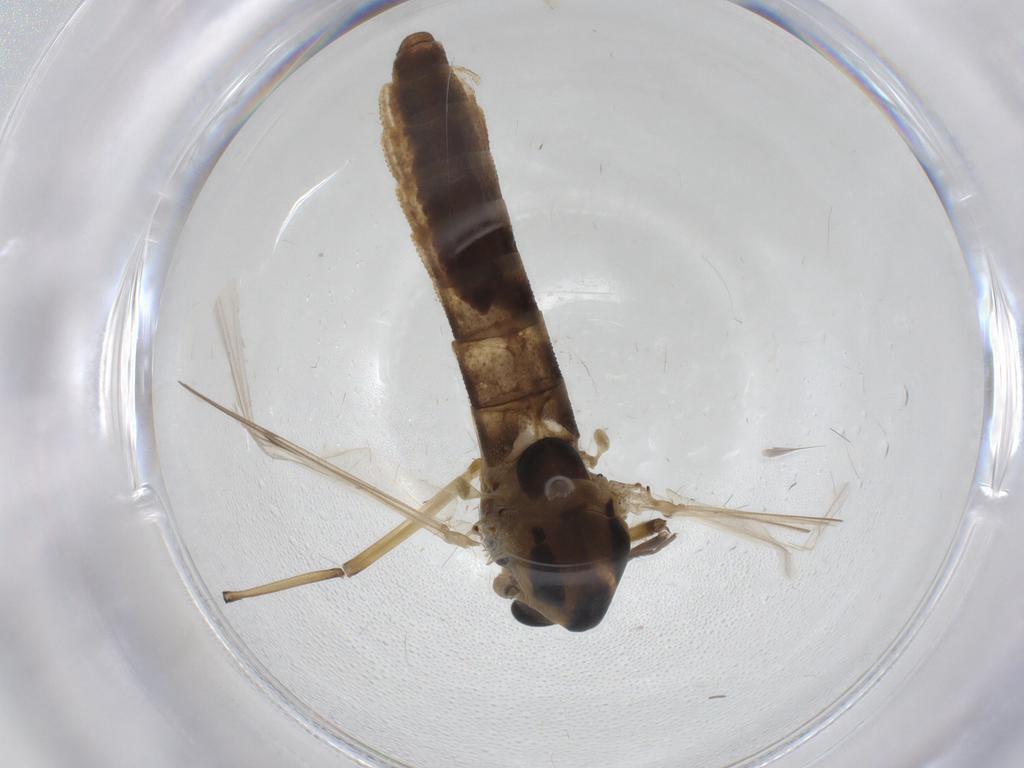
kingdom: Animalia
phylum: Arthropoda
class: Insecta
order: Diptera
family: Chironomidae
